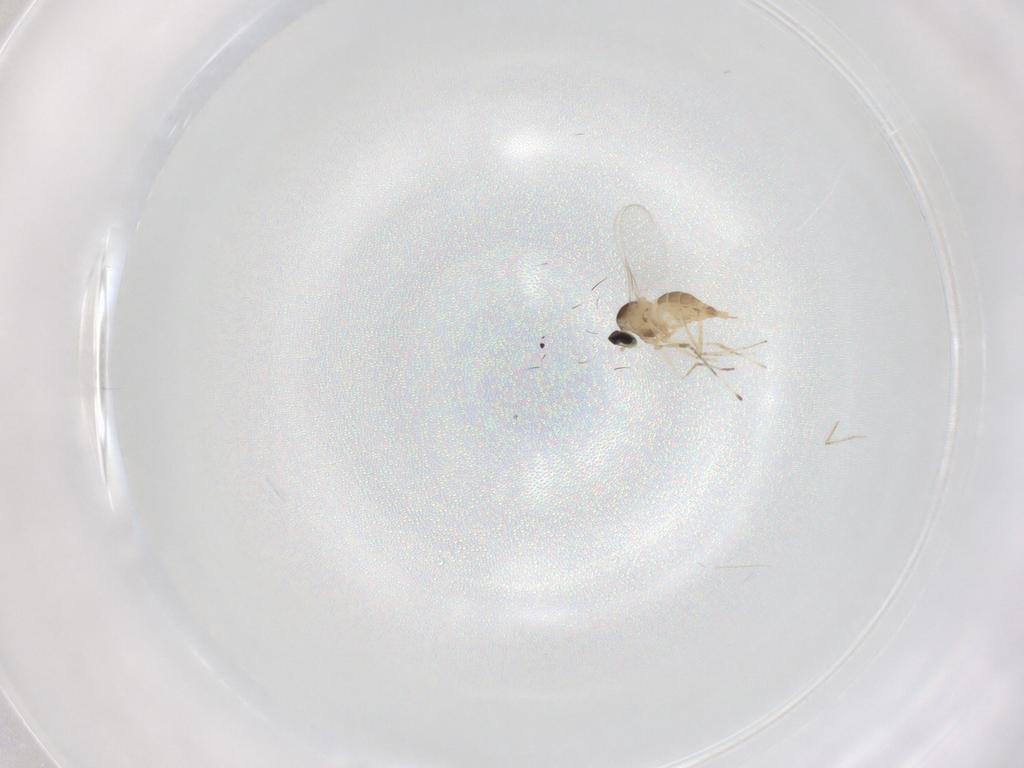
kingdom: Animalia
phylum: Arthropoda
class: Insecta
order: Diptera
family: Cecidomyiidae
